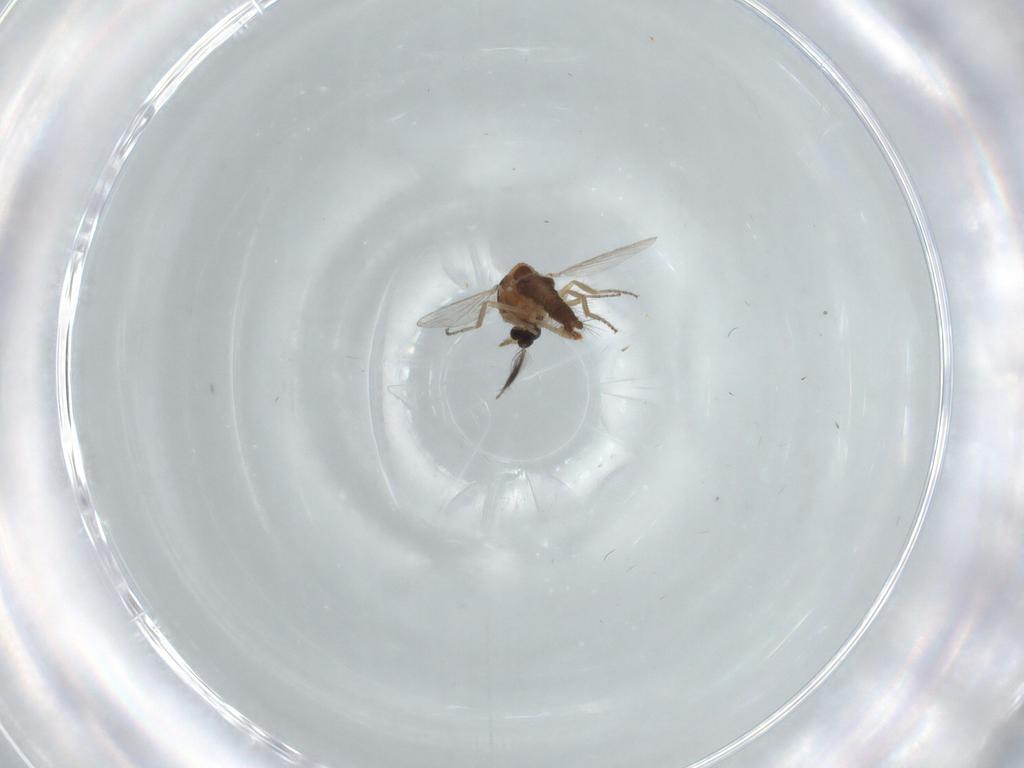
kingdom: Animalia
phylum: Arthropoda
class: Insecta
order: Diptera
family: Ceratopogonidae
